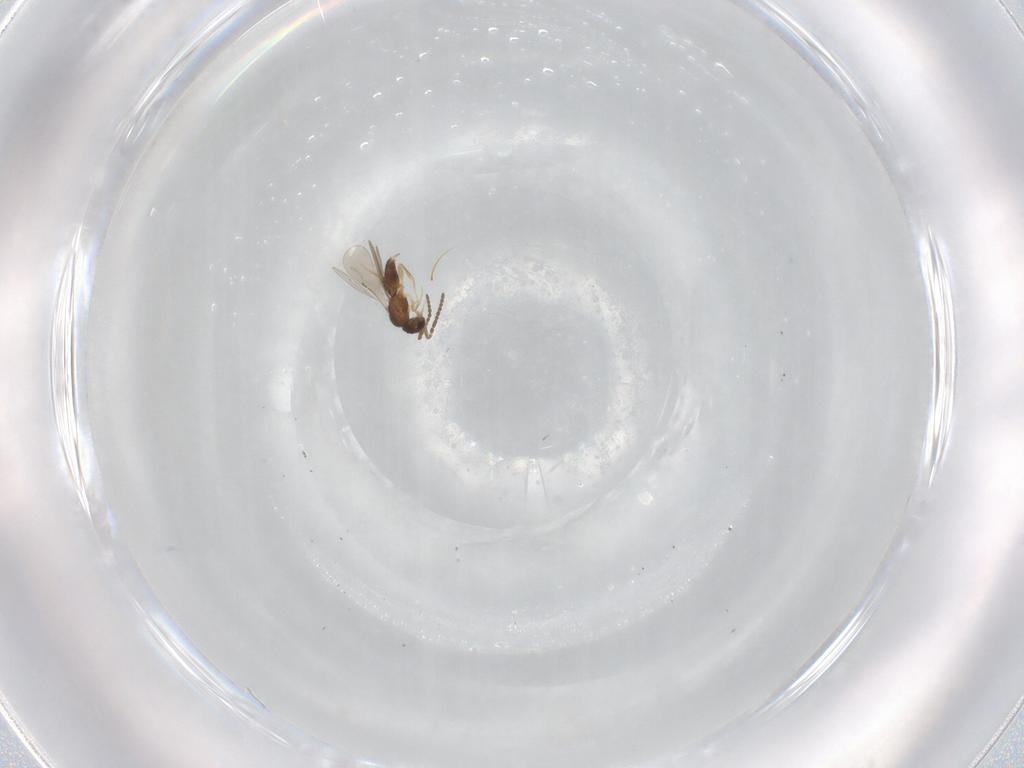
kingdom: Animalia
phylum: Arthropoda
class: Insecta
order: Hymenoptera
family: Ceraphronidae
